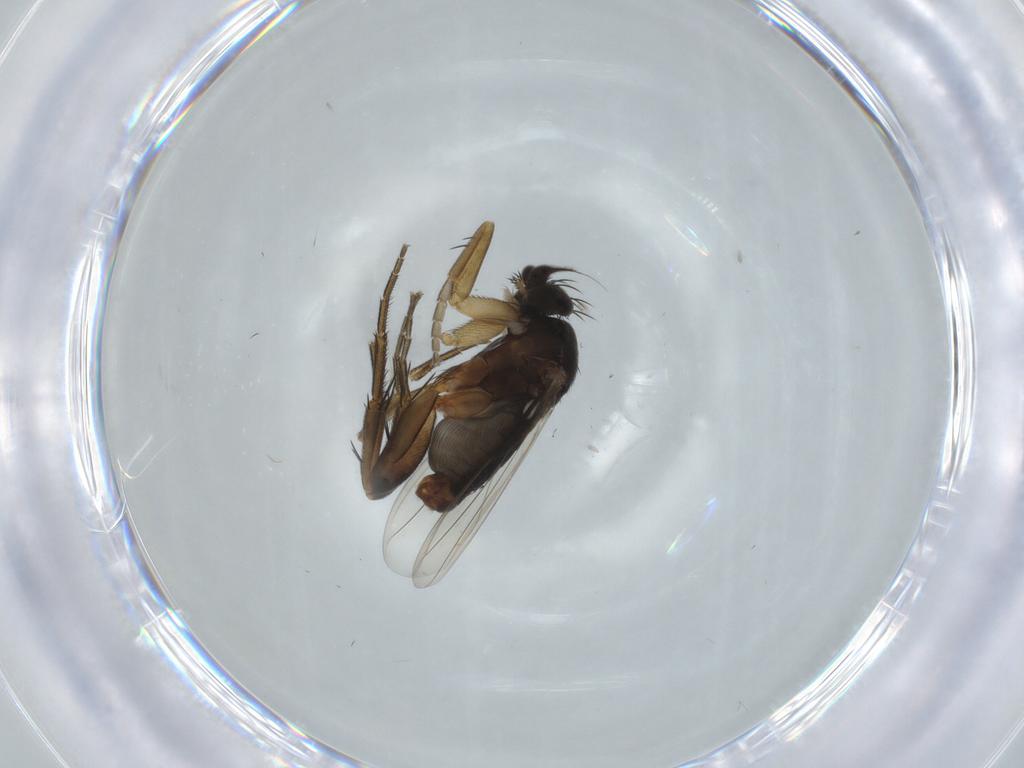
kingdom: Animalia
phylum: Arthropoda
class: Insecta
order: Diptera
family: Phoridae
